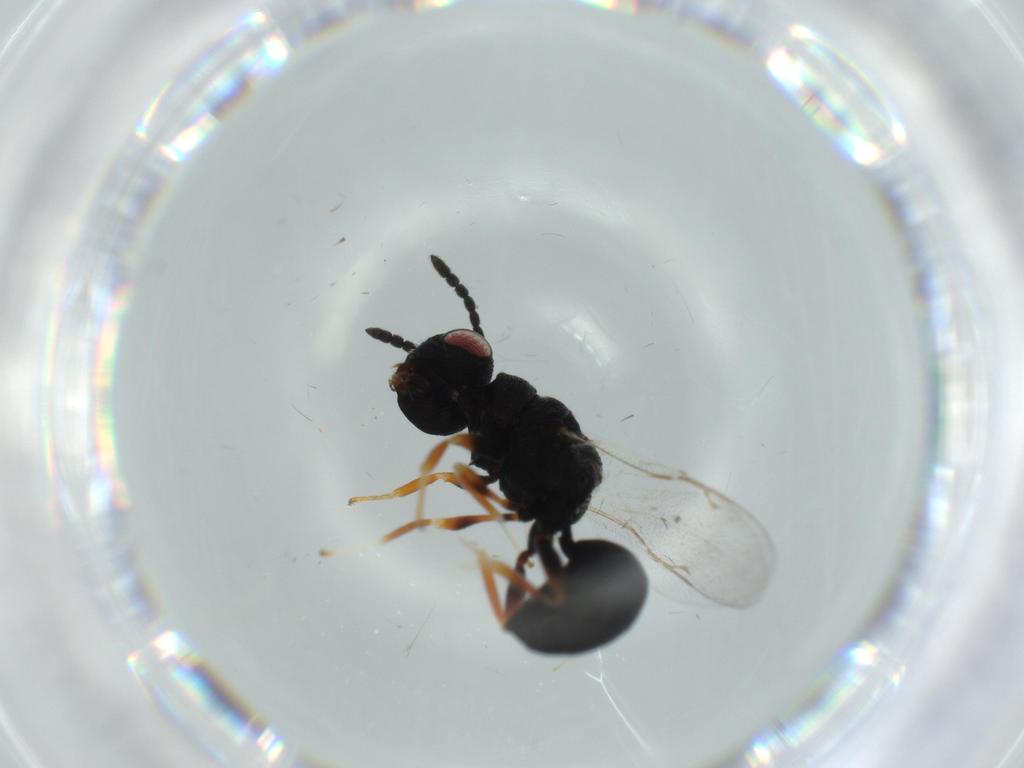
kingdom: Animalia
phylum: Arthropoda
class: Insecta
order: Hymenoptera
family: Encyrtidae
